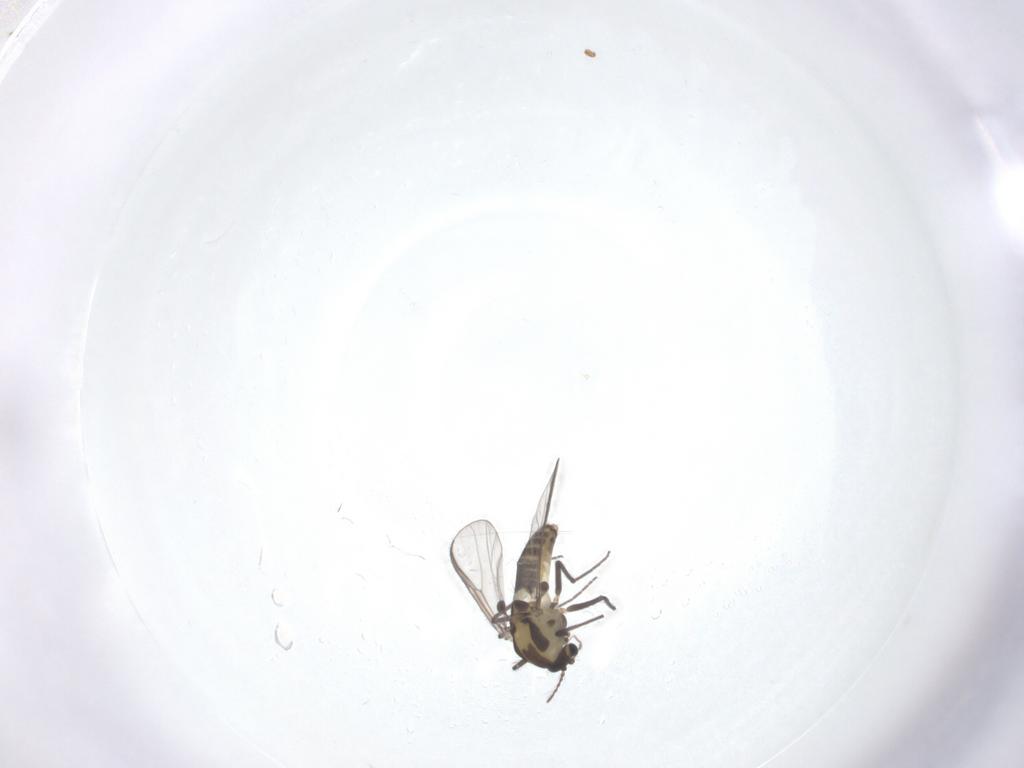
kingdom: Animalia
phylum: Arthropoda
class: Insecta
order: Diptera
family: Chironomidae
